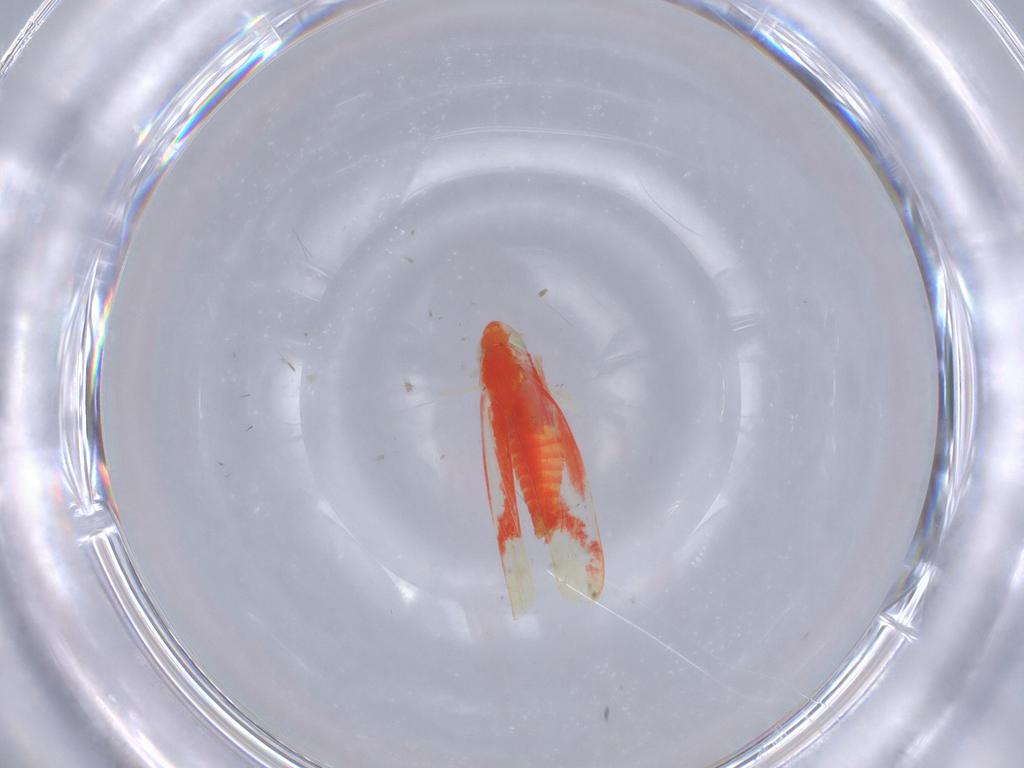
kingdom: Animalia
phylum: Arthropoda
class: Insecta
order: Hemiptera
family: Cicadellidae
